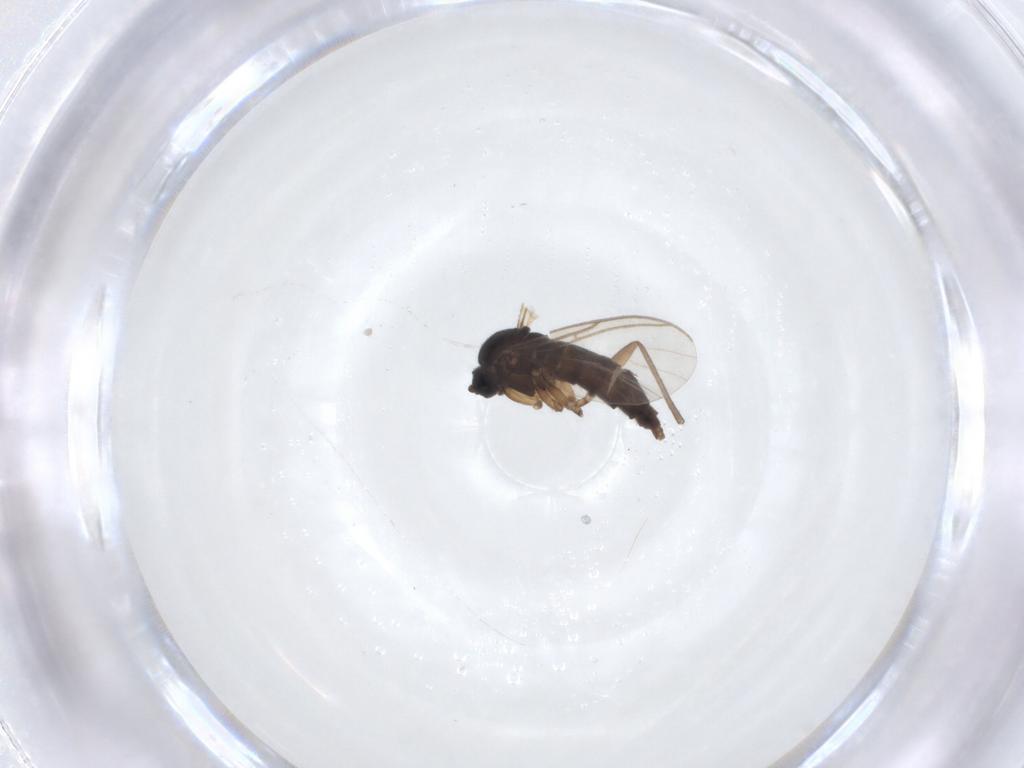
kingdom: Animalia
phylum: Arthropoda
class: Insecta
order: Diptera
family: Sciaridae
